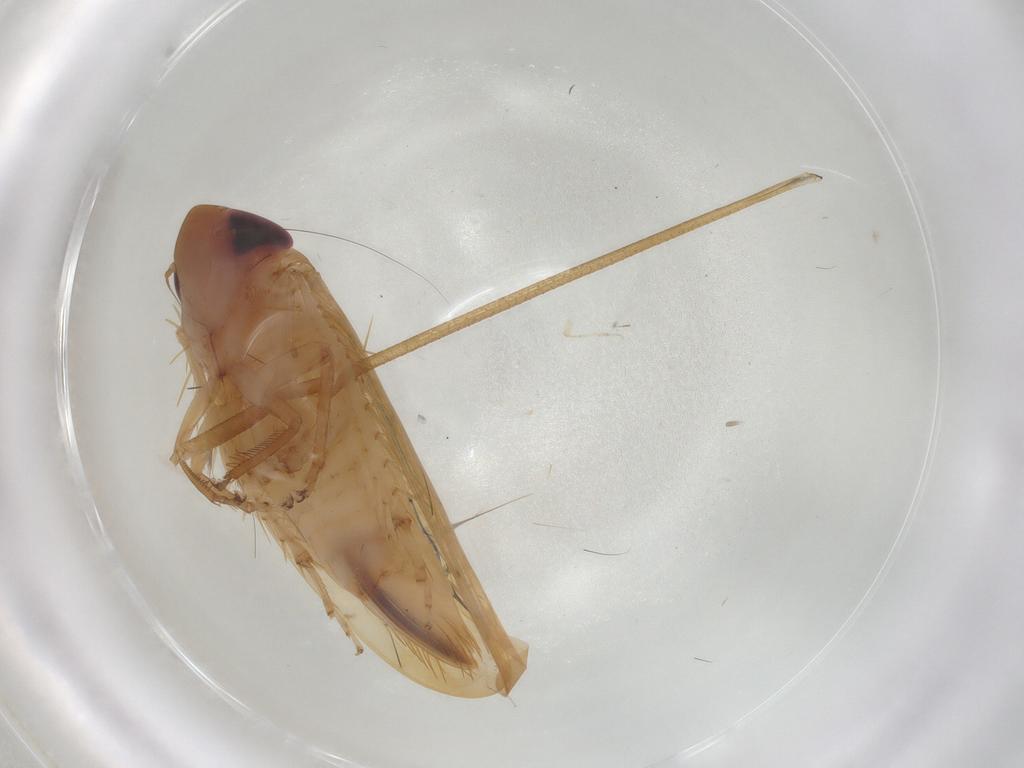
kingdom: Animalia
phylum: Arthropoda
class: Insecta
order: Hemiptera
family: Cicadellidae
